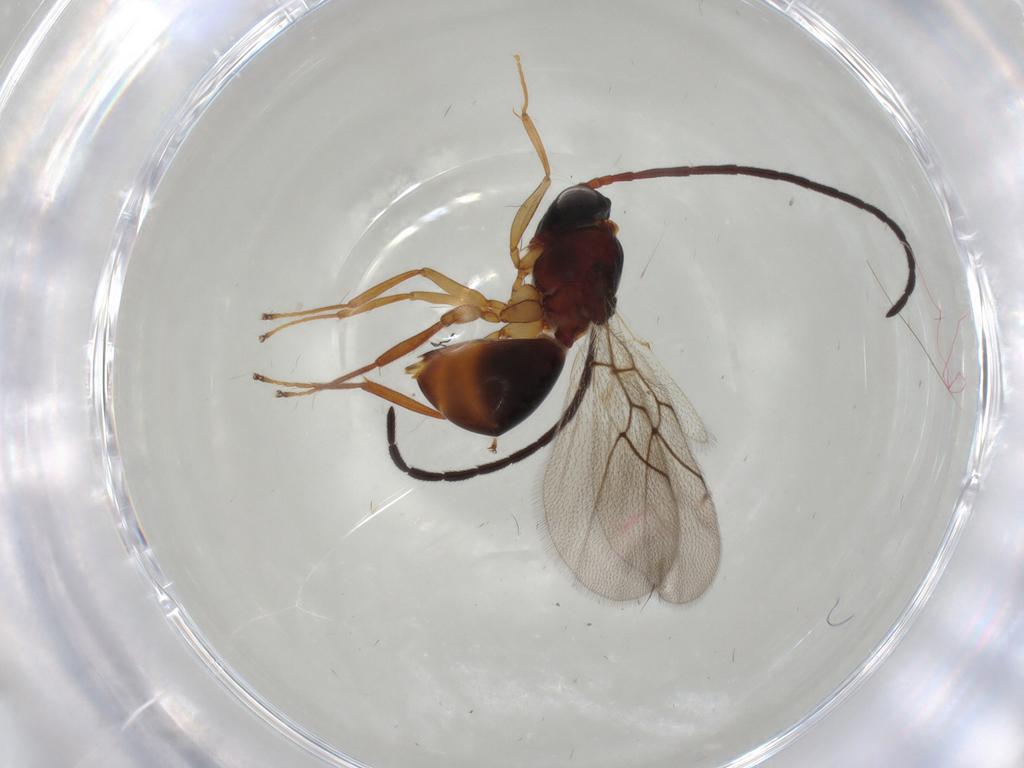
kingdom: Animalia
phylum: Arthropoda
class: Insecta
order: Hymenoptera
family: Figitidae
